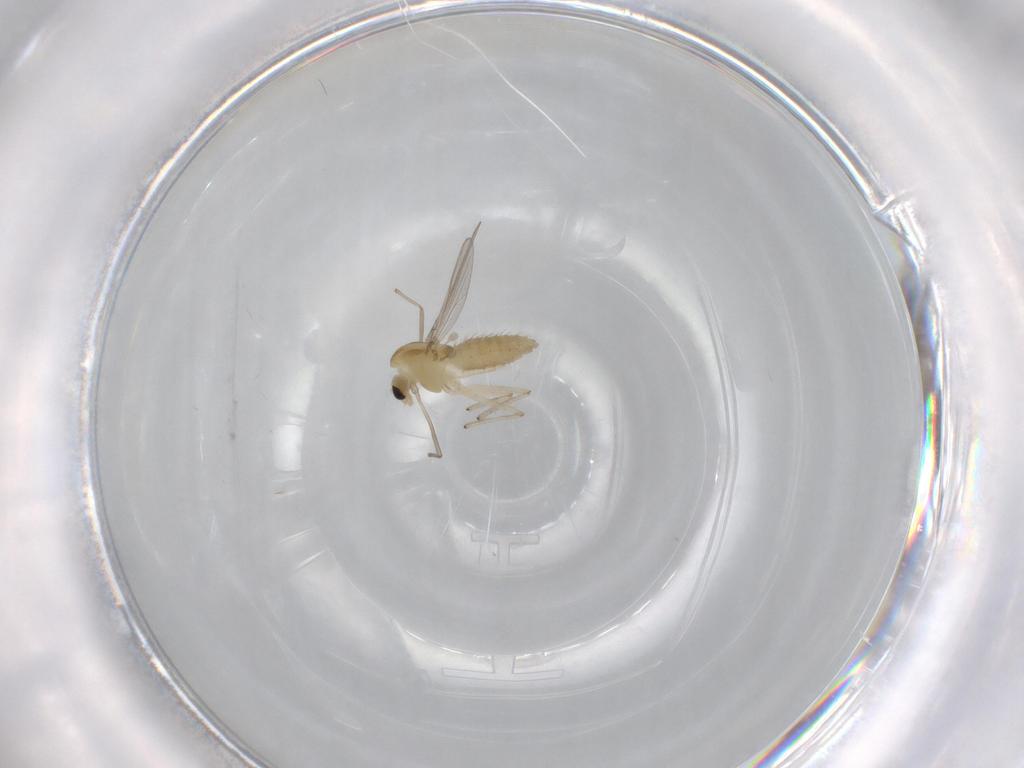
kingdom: Animalia
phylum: Arthropoda
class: Insecta
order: Diptera
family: Chironomidae
